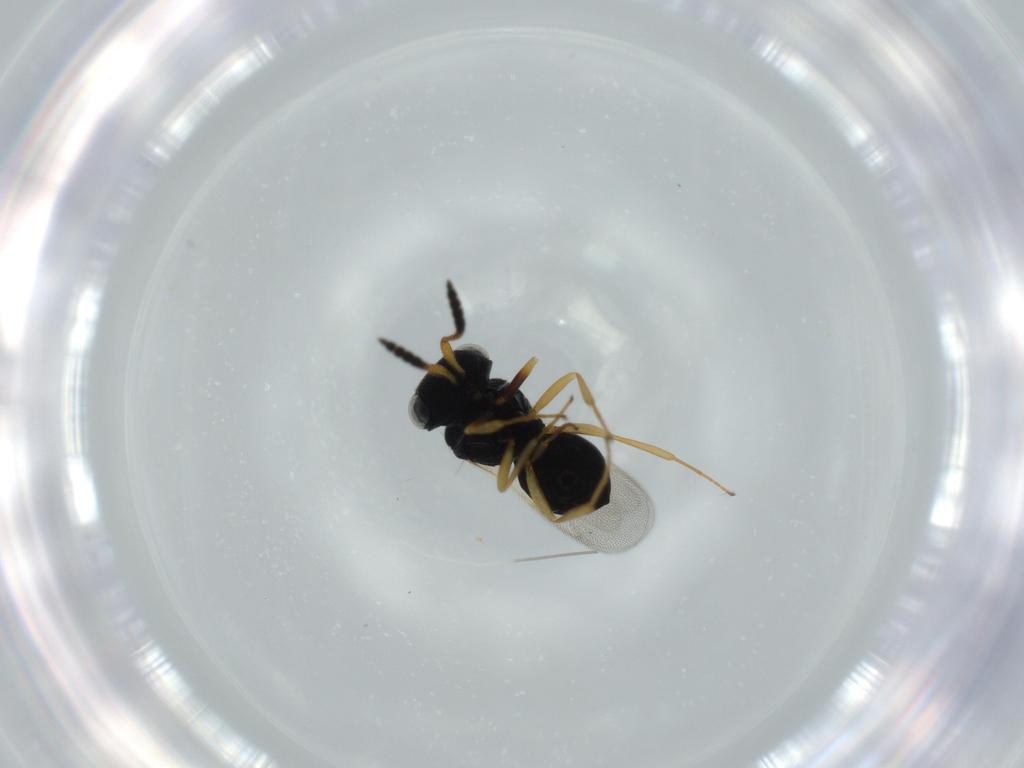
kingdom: Animalia
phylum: Arthropoda
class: Insecta
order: Hymenoptera
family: Scelionidae
